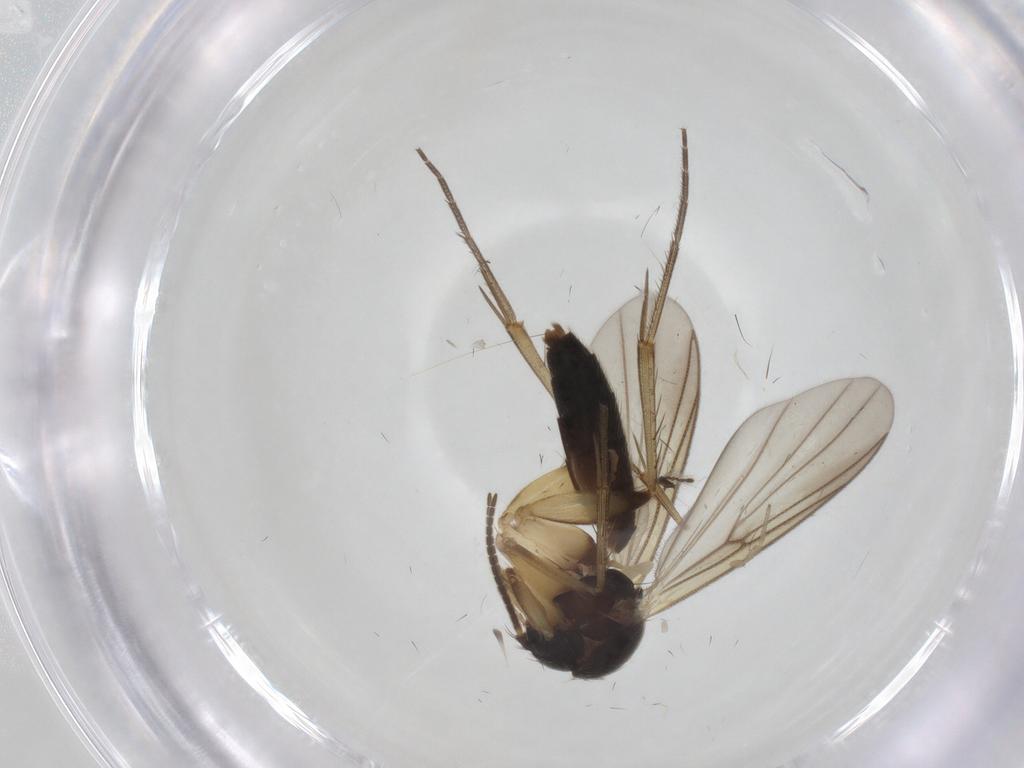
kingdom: Animalia
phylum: Arthropoda
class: Insecta
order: Diptera
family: Mycetophilidae
